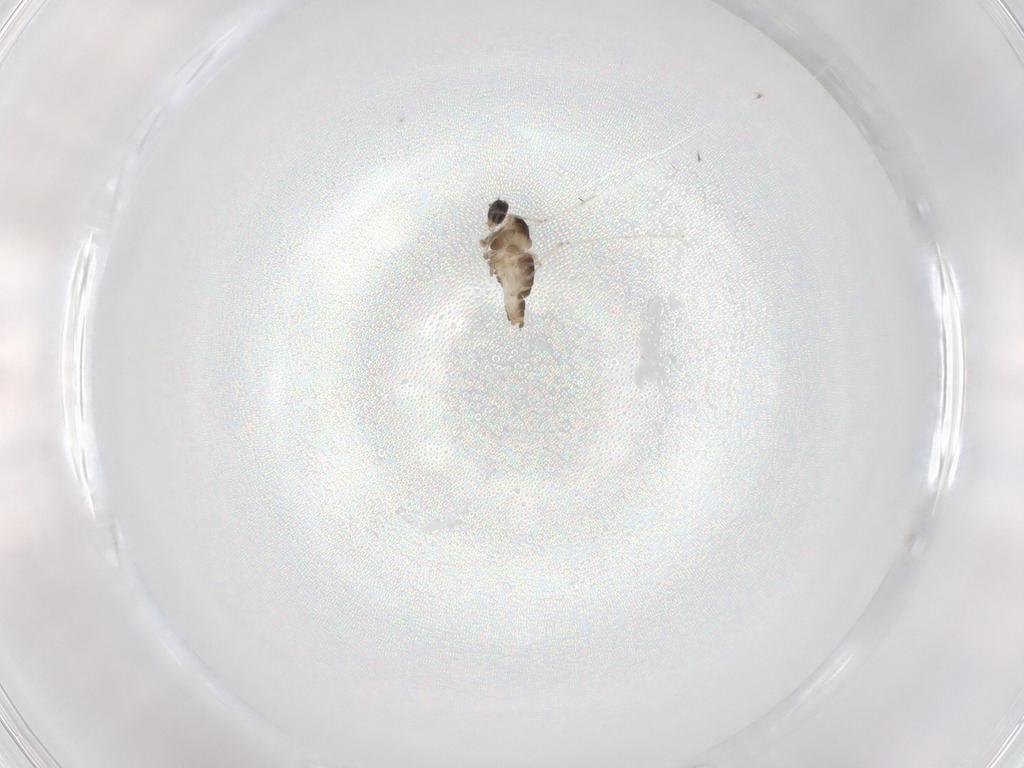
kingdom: Animalia
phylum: Arthropoda
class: Insecta
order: Diptera
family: Cecidomyiidae
